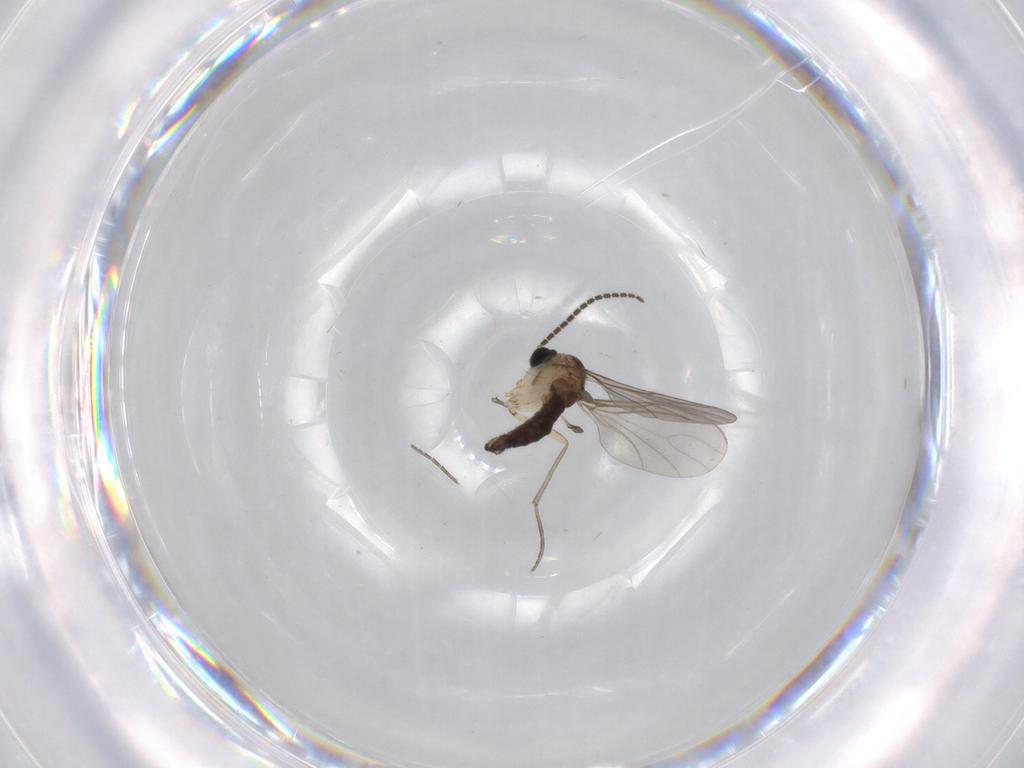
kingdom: Animalia
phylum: Arthropoda
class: Insecta
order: Diptera
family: Sciaridae
